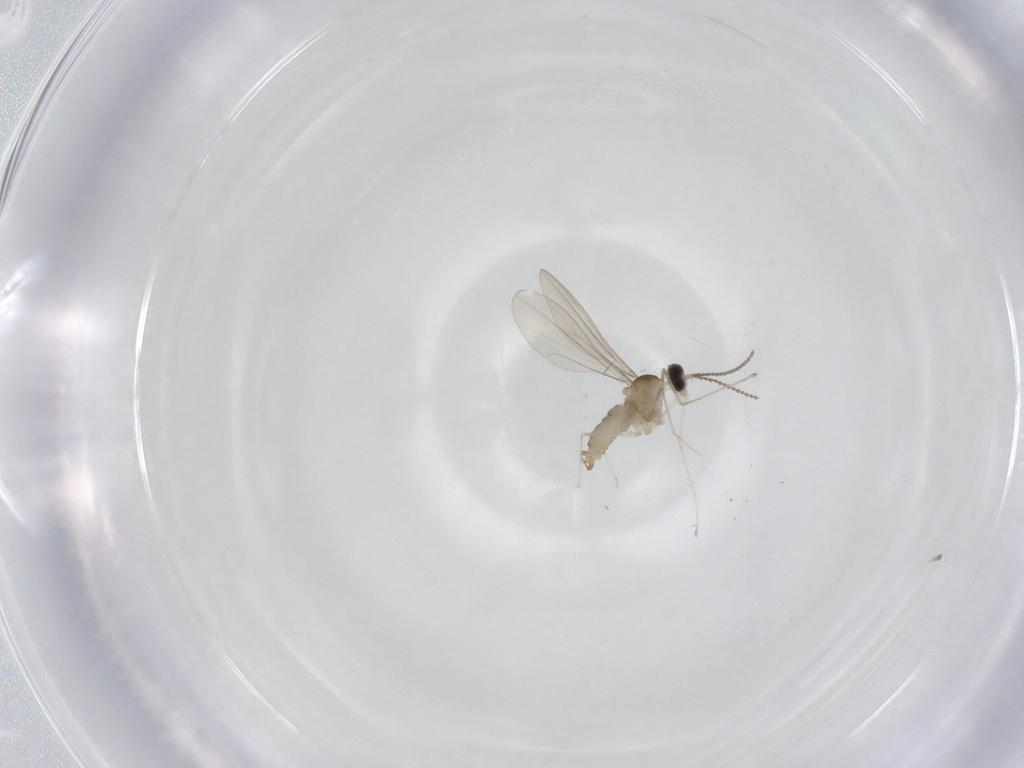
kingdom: Animalia
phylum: Arthropoda
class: Insecta
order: Diptera
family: Cecidomyiidae
